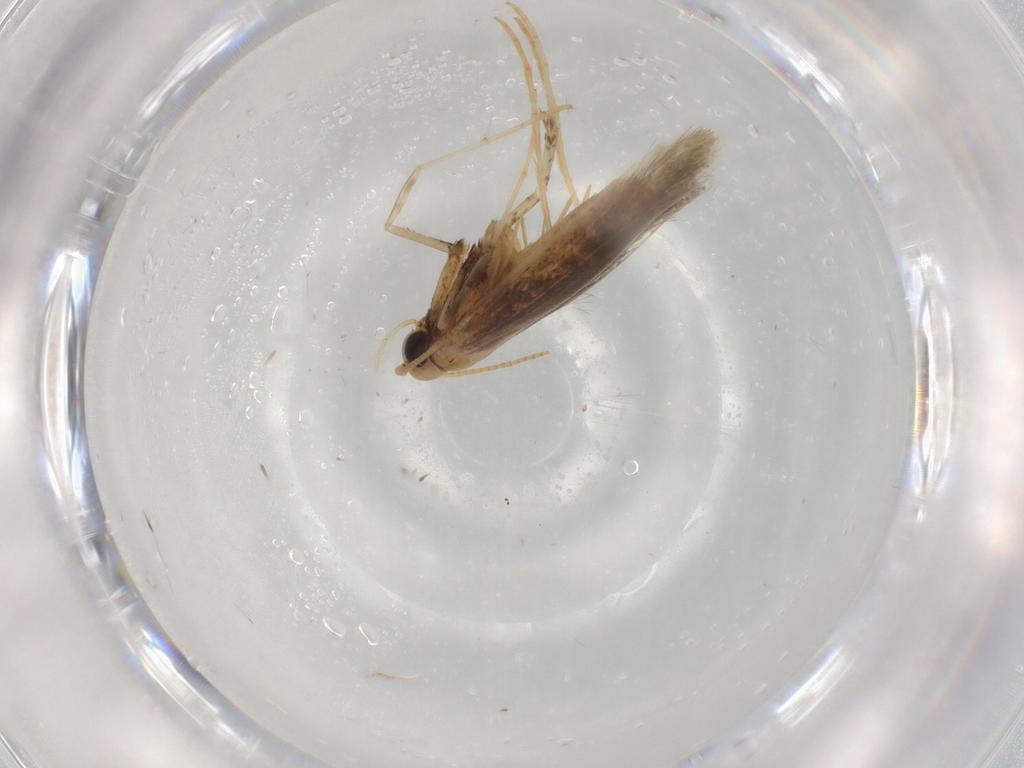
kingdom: Animalia
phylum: Arthropoda
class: Insecta
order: Lepidoptera
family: Gracillariidae
